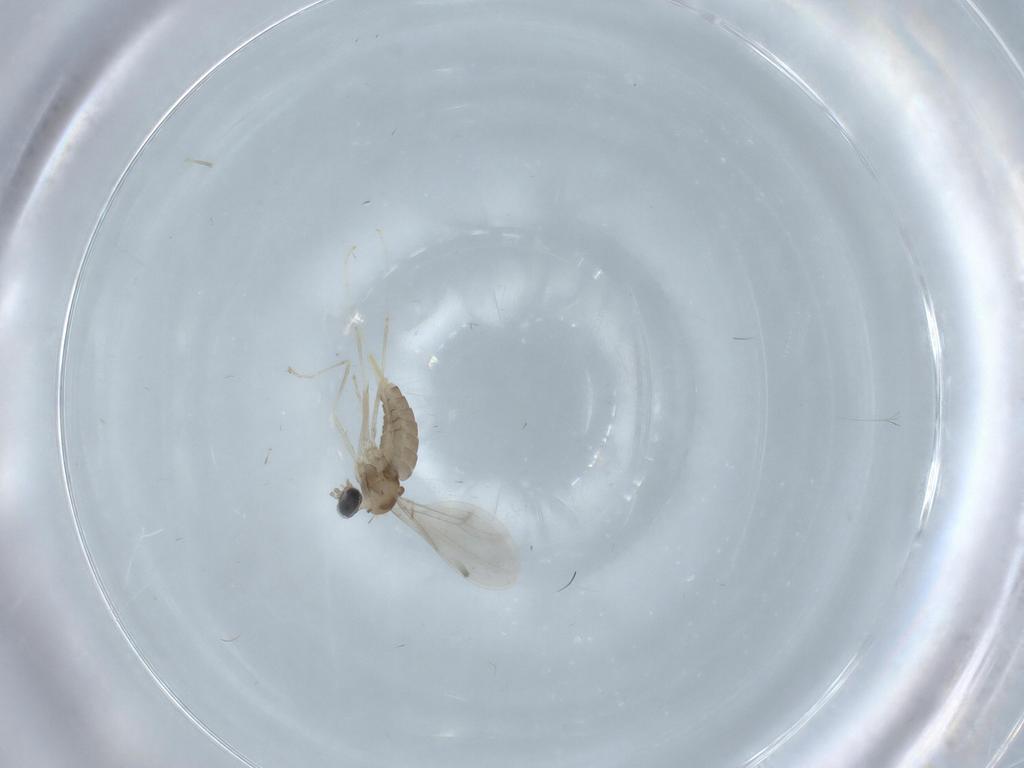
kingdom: Animalia
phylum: Arthropoda
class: Insecta
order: Diptera
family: Cecidomyiidae
